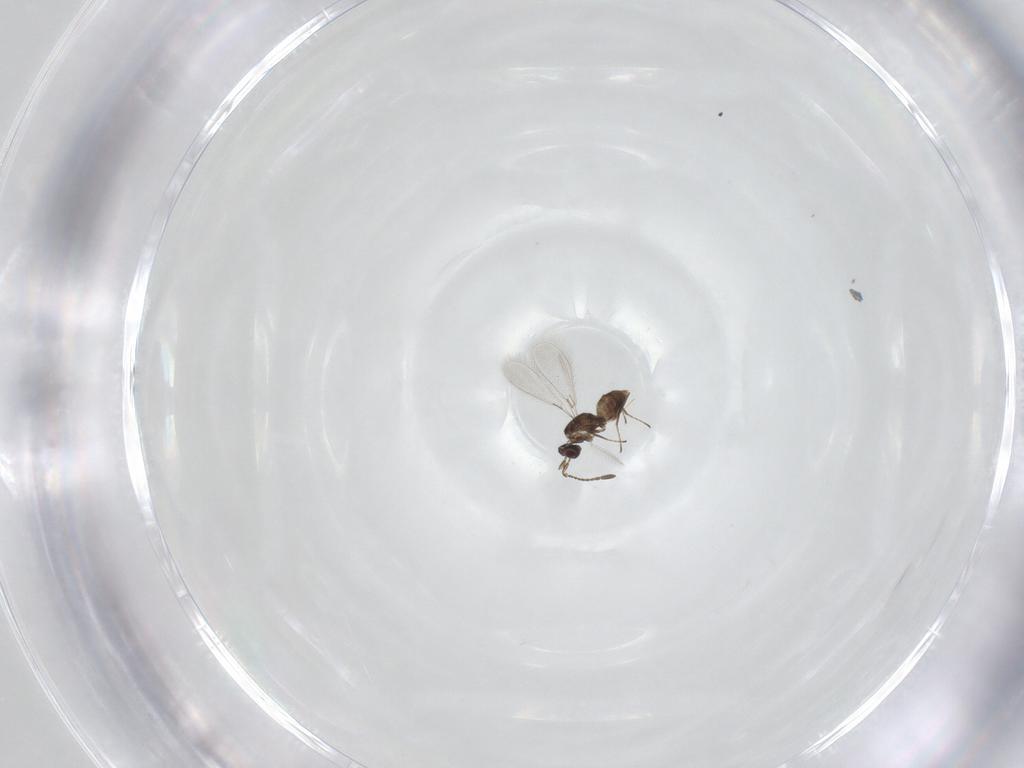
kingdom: Animalia
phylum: Arthropoda
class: Insecta
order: Hymenoptera
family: Mymaridae
